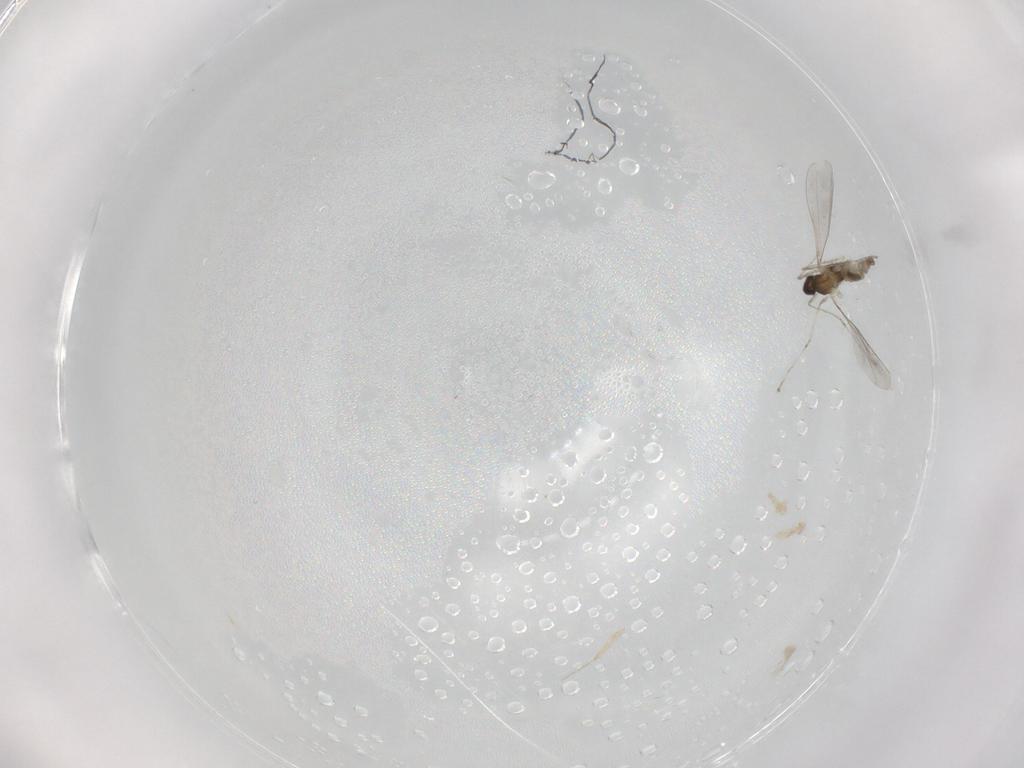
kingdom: Animalia
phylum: Arthropoda
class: Insecta
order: Diptera
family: Cecidomyiidae
